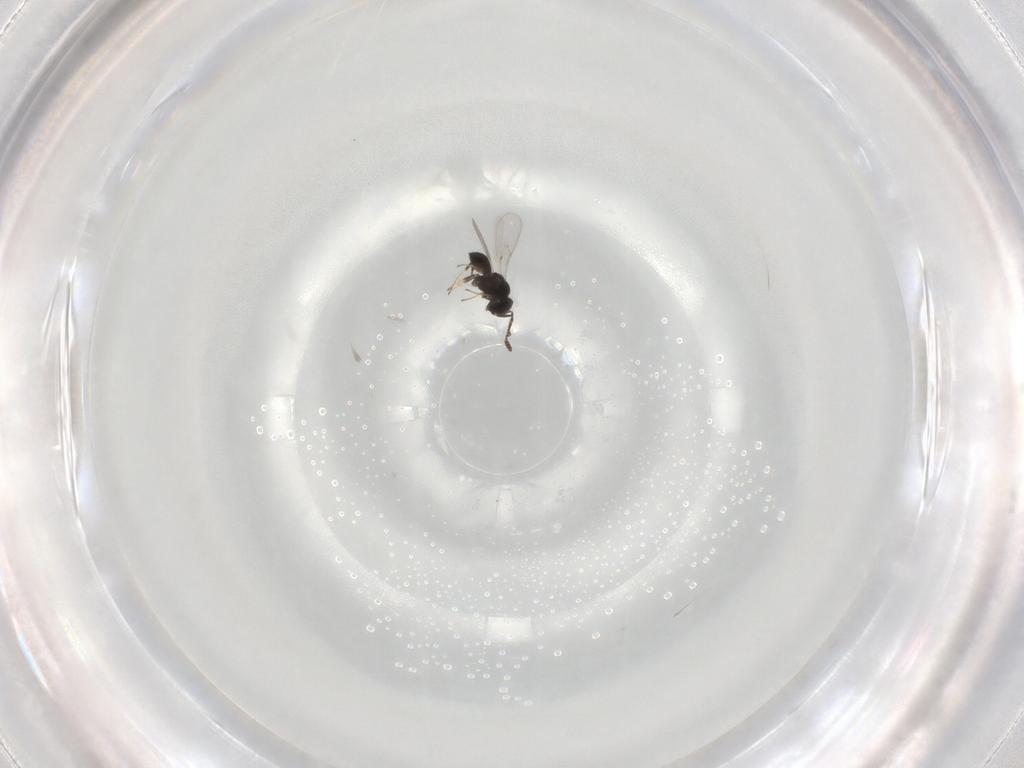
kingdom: Animalia
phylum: Arthropoda
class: Insecta
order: Hymenoptera
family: Scelionidae
